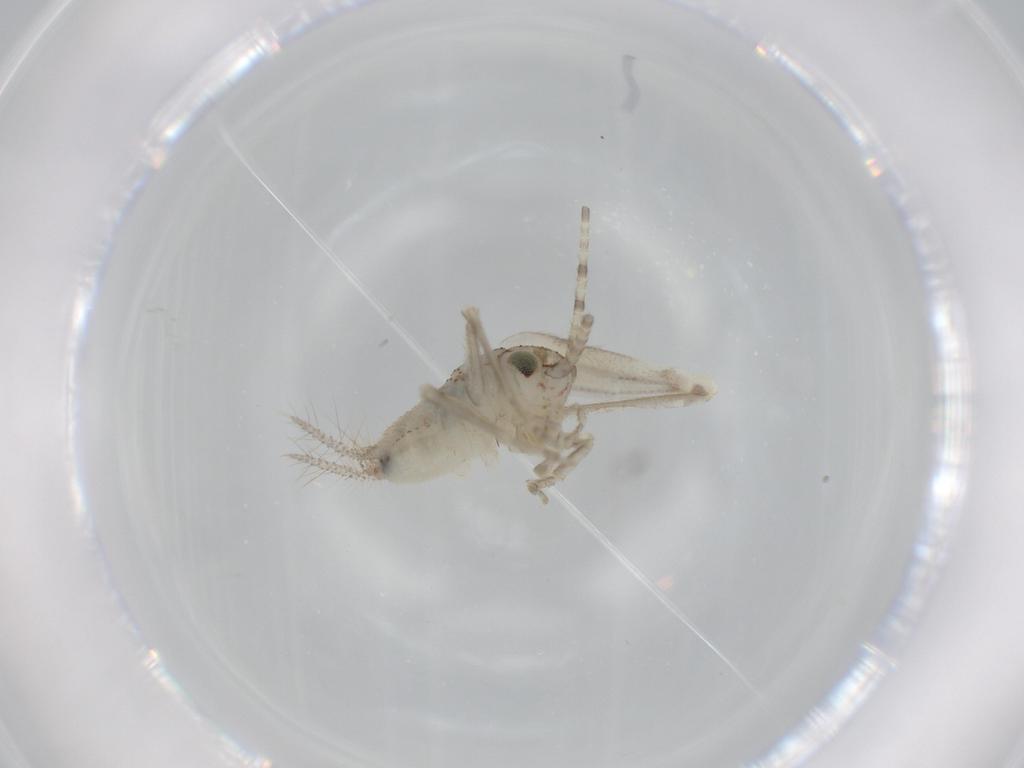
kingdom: Animalia
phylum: Arthropoda
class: Insecta
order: Orthoptera
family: Trigonidiidae
